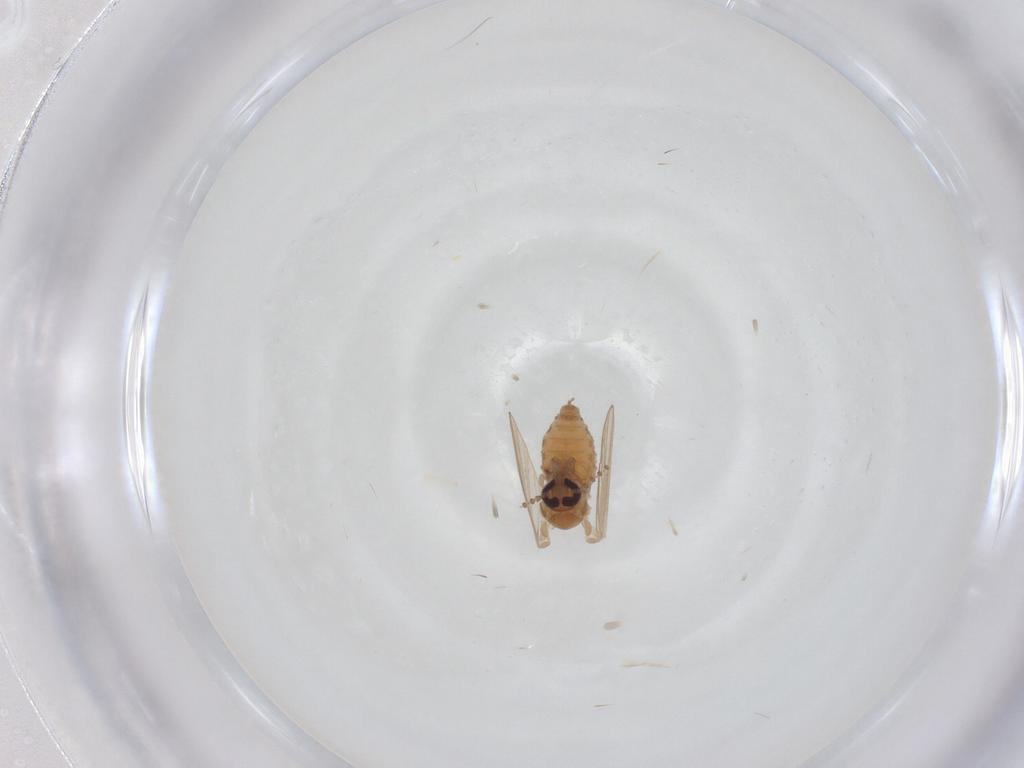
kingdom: Animalia
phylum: Arthropoda
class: Insecta
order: Diptera
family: Psychodidae
